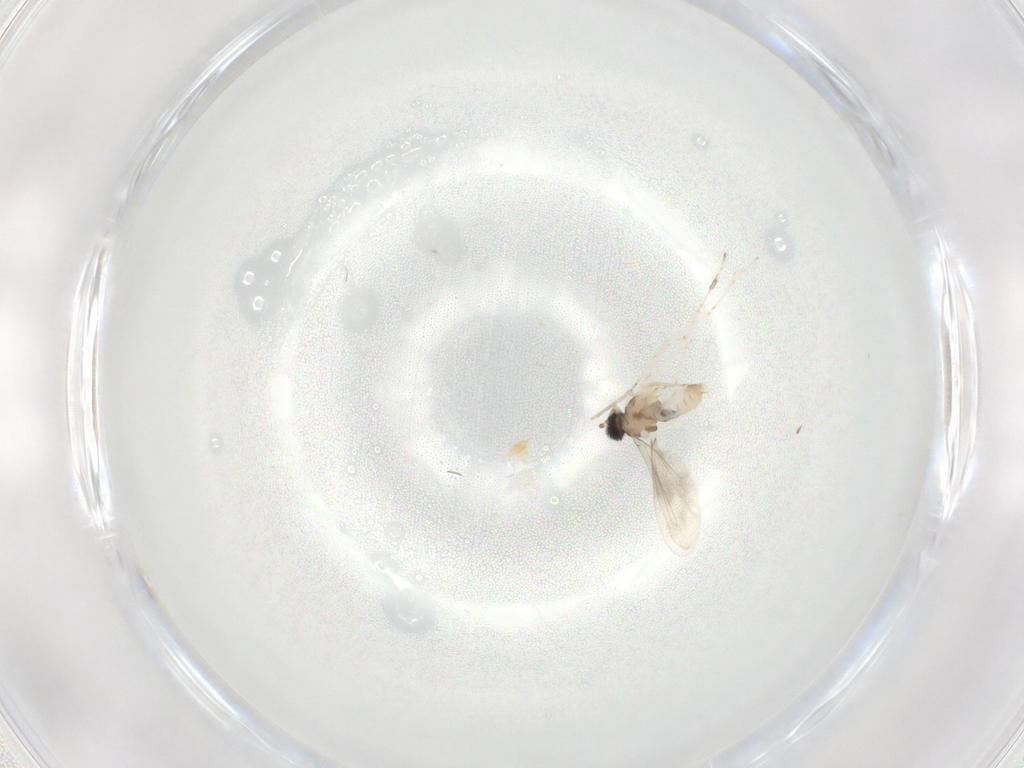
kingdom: Animalia
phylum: Arthropoda
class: Insecta
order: Diptera
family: Cecidomyiidae
